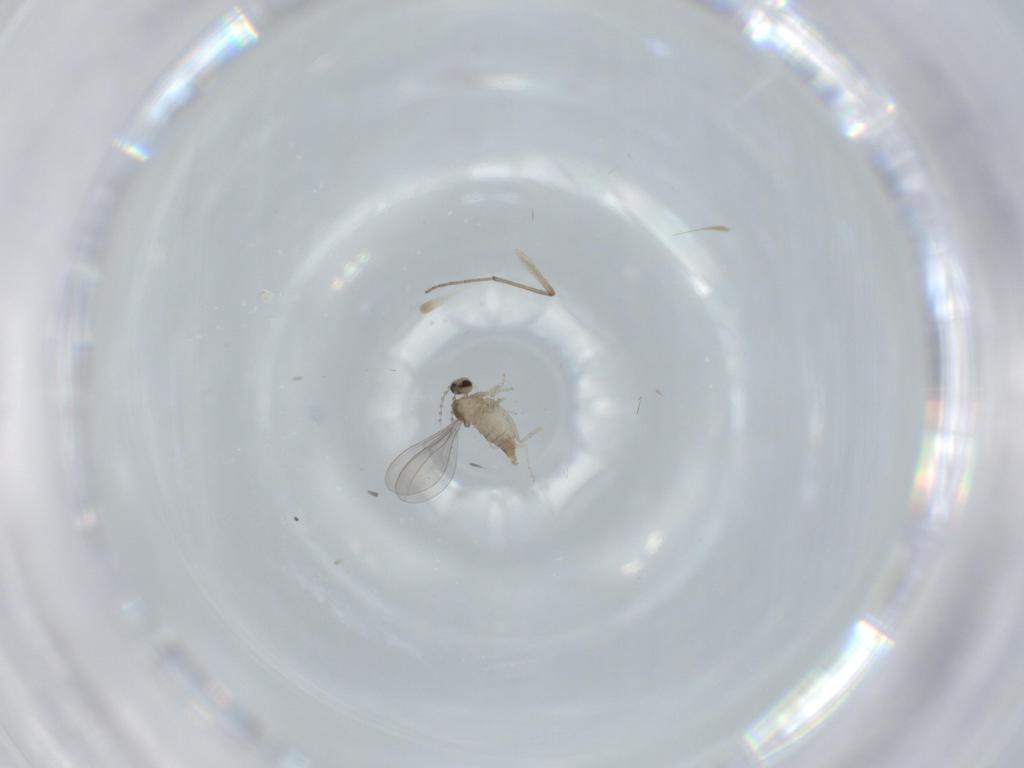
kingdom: Animalia
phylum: Arthropoda
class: Insecta
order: Diptera
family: Cecidomyiidae
